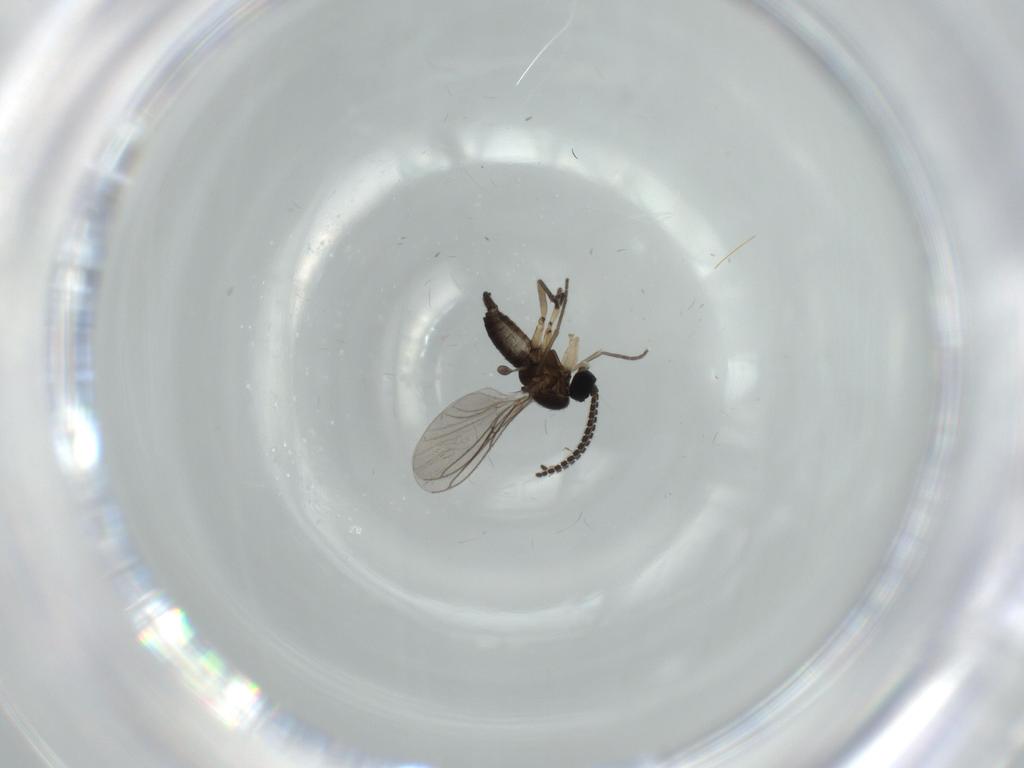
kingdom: Animalia
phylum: Arthropoda
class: Insecta
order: Diptera
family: Sciaridae
